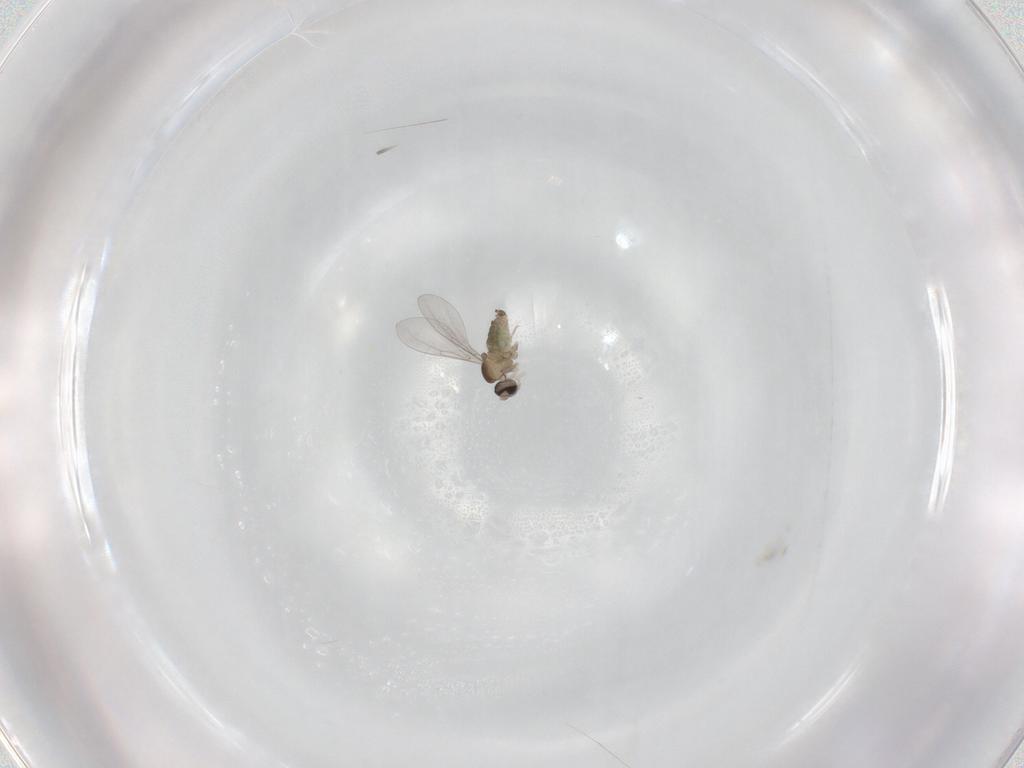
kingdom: Animalia
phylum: Arthropoda
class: Insecta
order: Diptera
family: Cecidomyiidae
